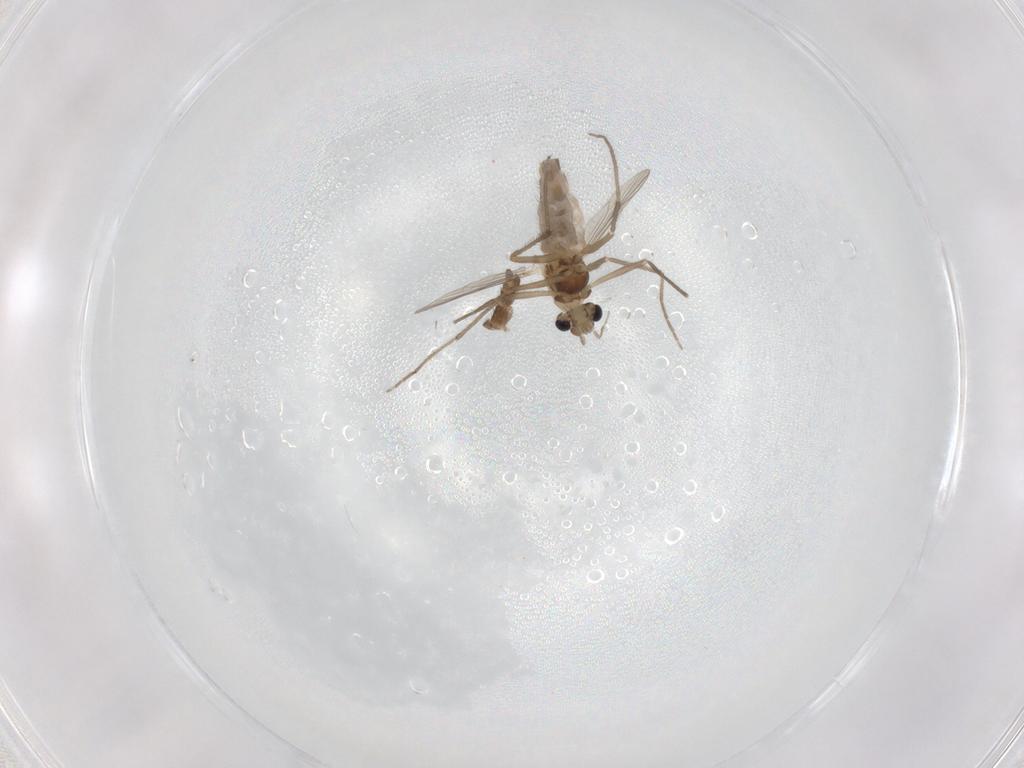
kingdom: Animalia
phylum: Arthropoda
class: Insecta
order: Diptera
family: Chironomidae
